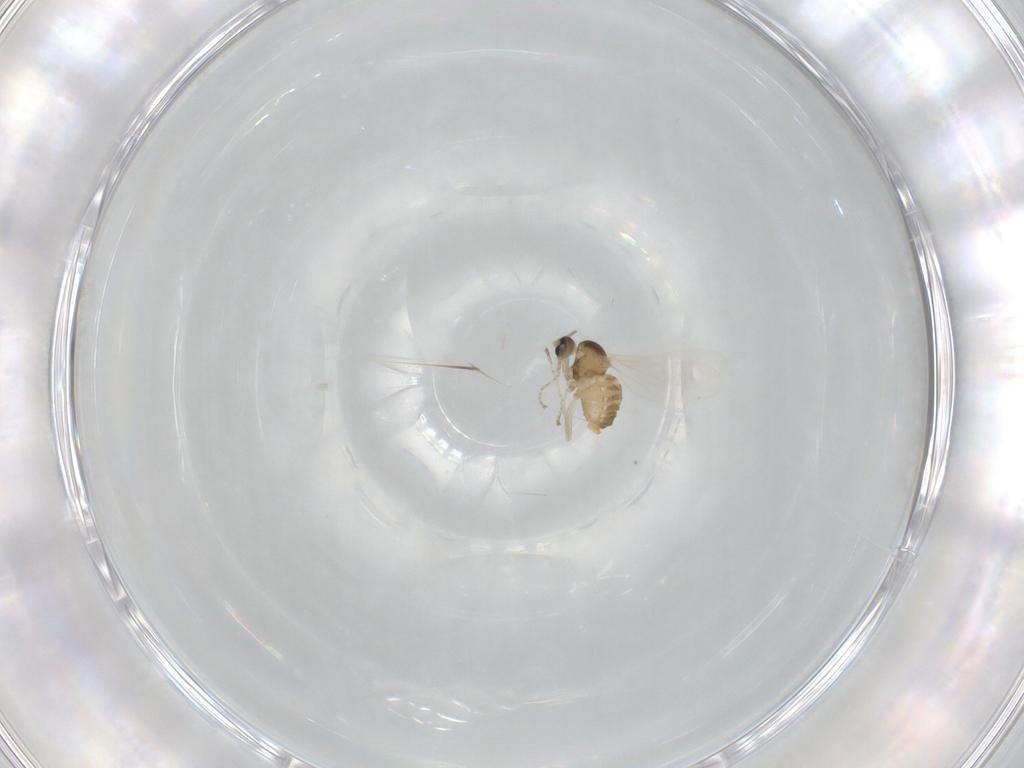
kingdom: Animalia
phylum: Arthropoda
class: Insecta
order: Diptera
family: Cecidomyiidae
